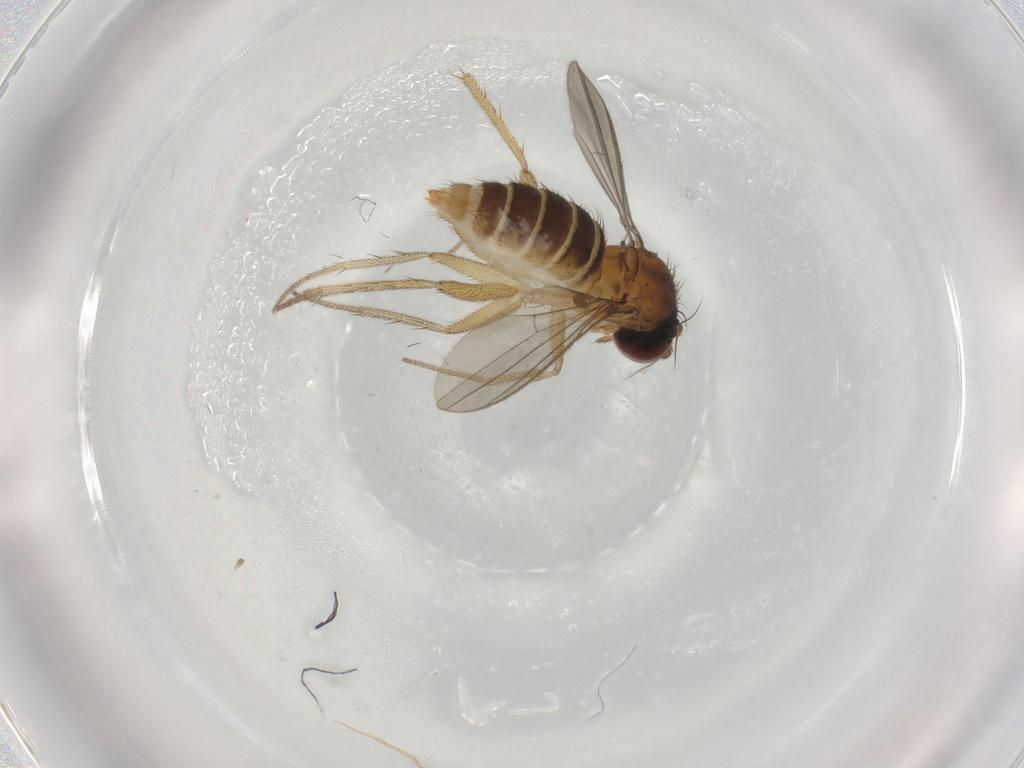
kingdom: Animalia
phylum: Arthropoda
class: Insecta
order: Diptera
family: Dolichopodidae
